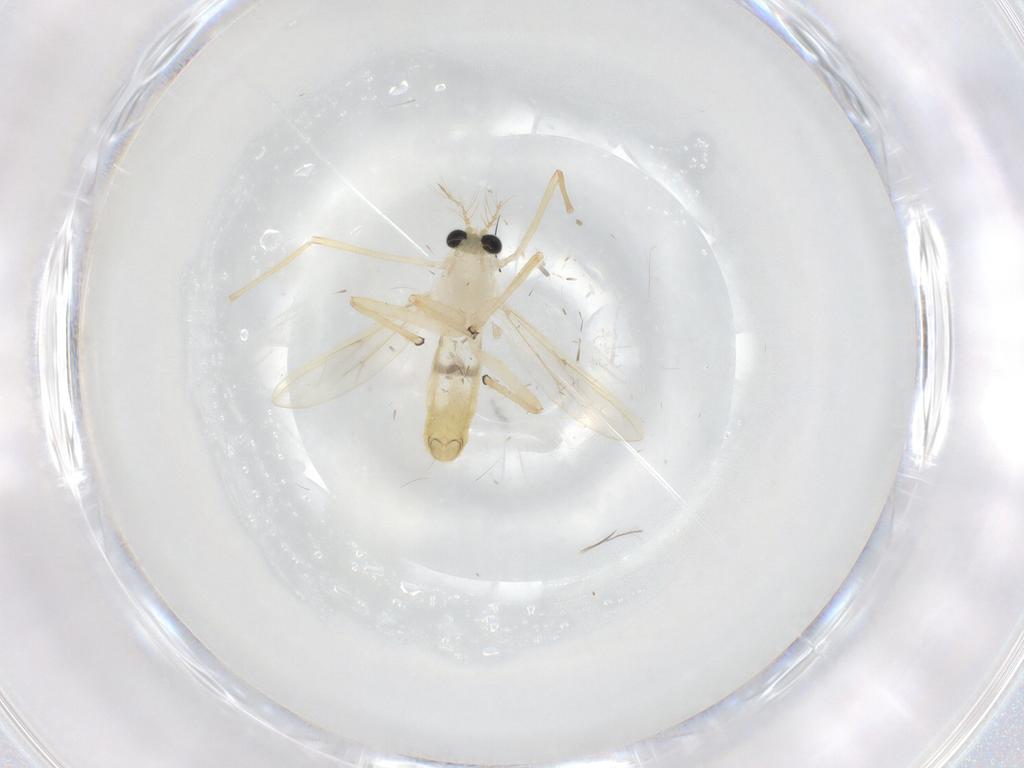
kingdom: Animalia
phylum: Arthropoda
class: Insecta
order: Diptera
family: Chironomidae
